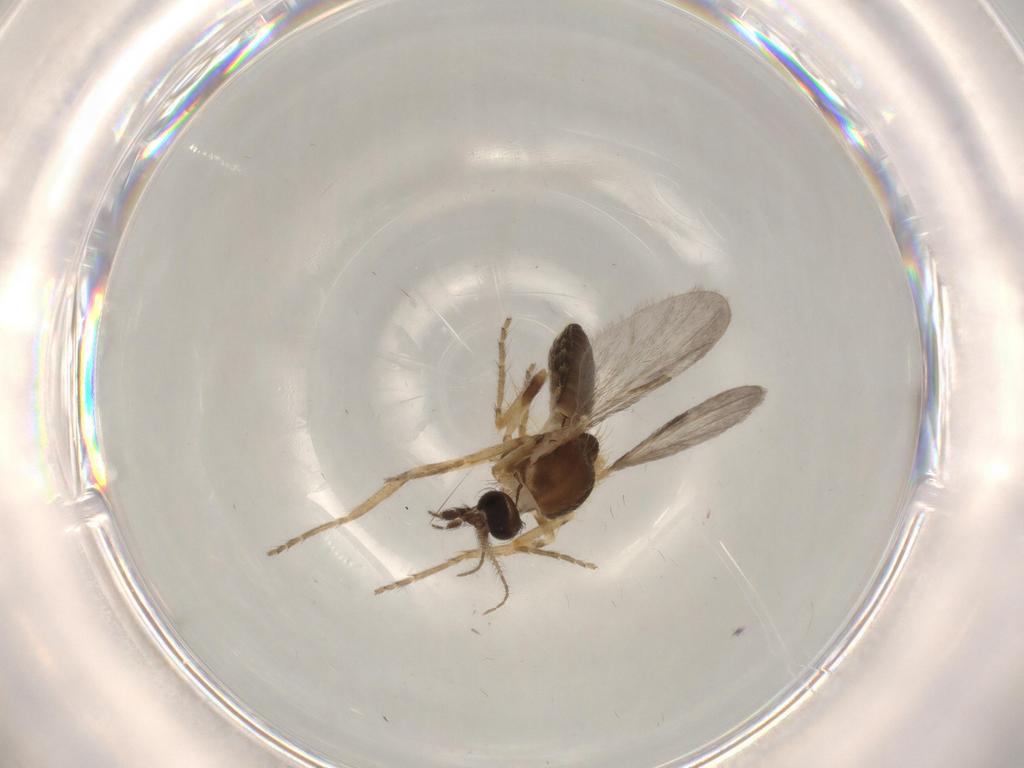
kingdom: Animalia
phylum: Arthropoda
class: Insecta
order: Diptera
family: Ceratopogonidae
